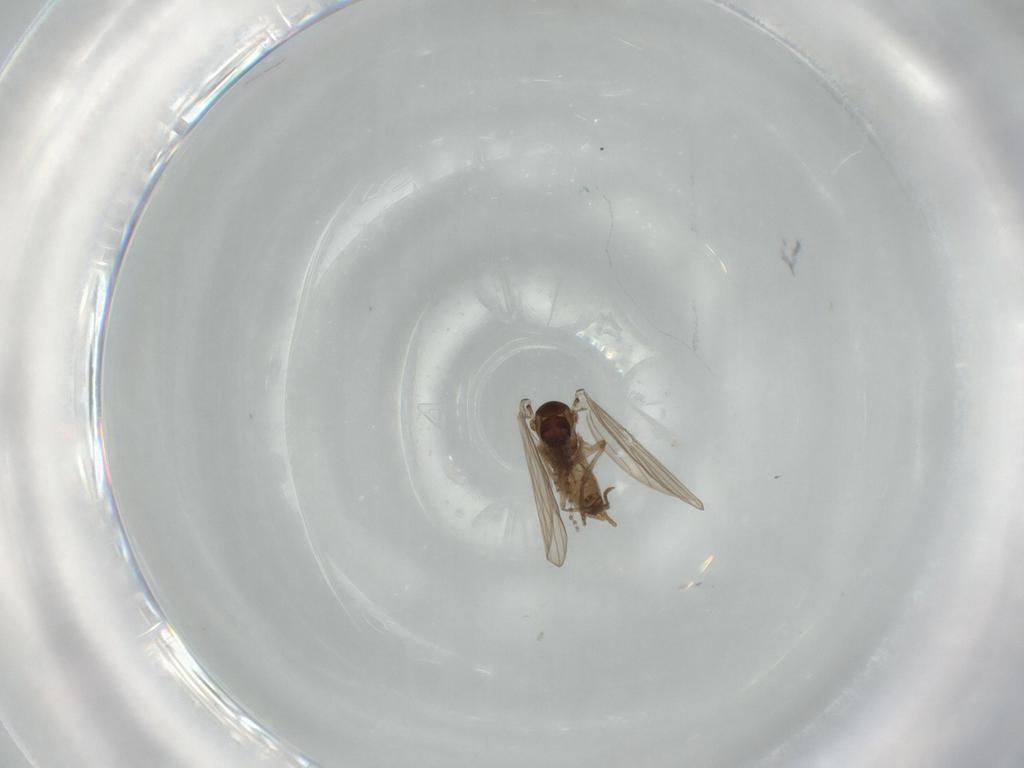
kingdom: Animalia
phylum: Arthropoda
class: Insecta
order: Diptera
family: Psychodidae
